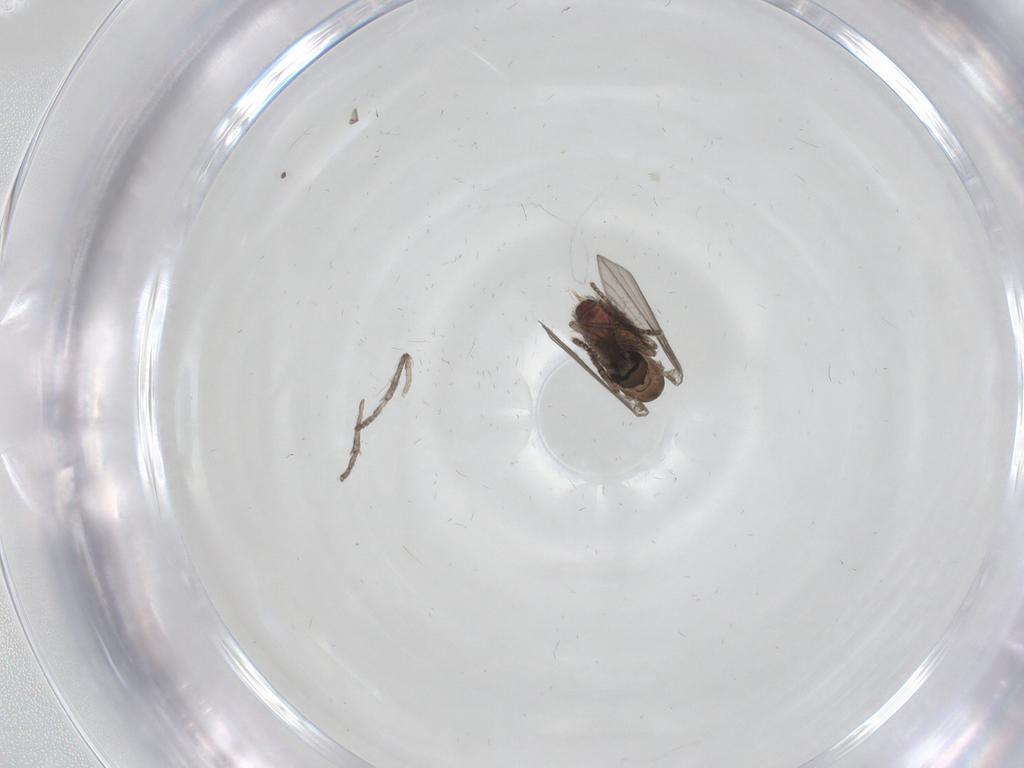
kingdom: Animalia
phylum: Arthropoda
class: Insecta
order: Diptera
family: Psychodidae
